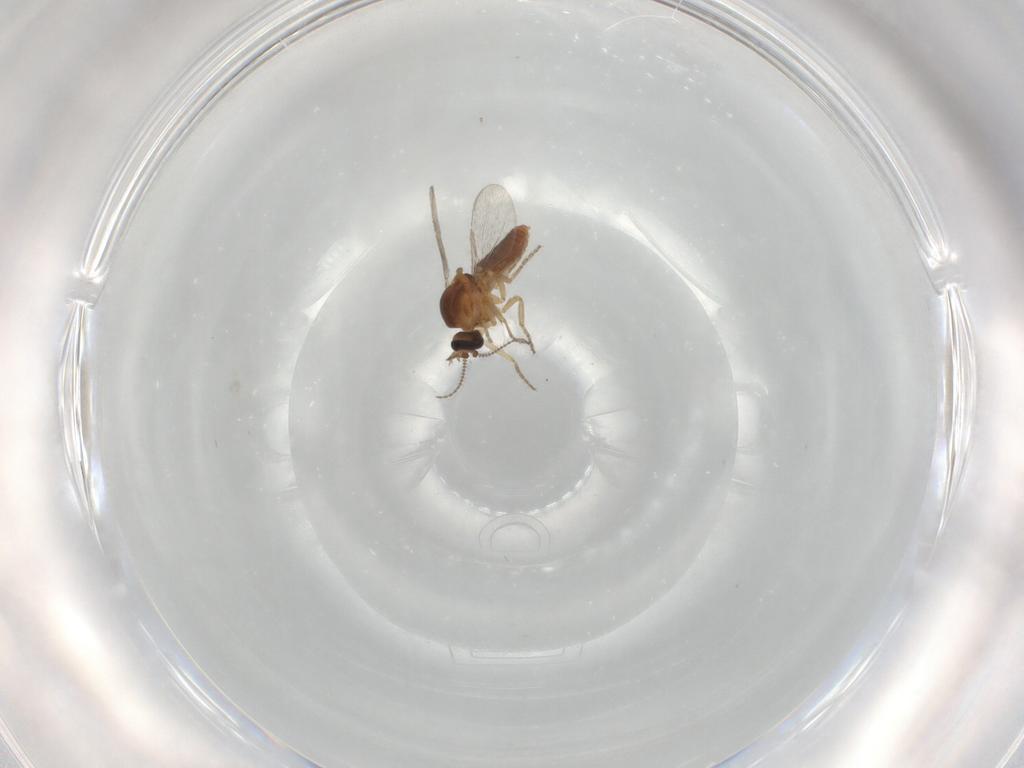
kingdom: Animalia
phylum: Arthropoda
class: Insecta
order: Diptera
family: Ceratopogonidae
